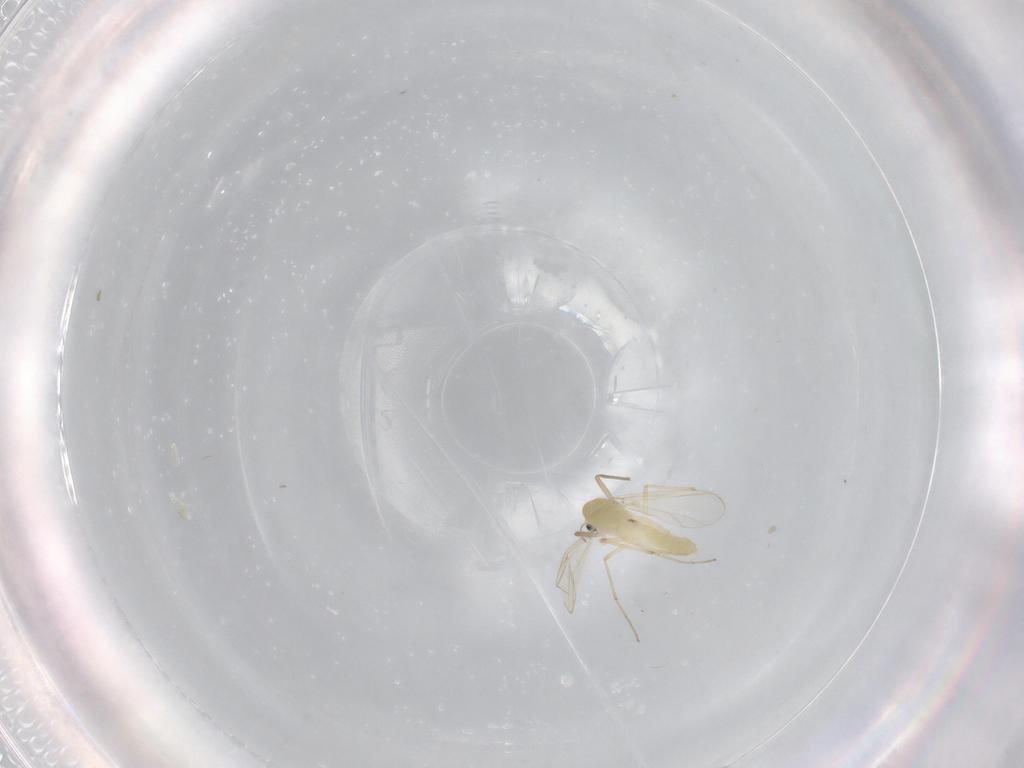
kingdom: Animalia
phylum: Arthropoda
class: Insecta
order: Diptera
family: Chironomidae
